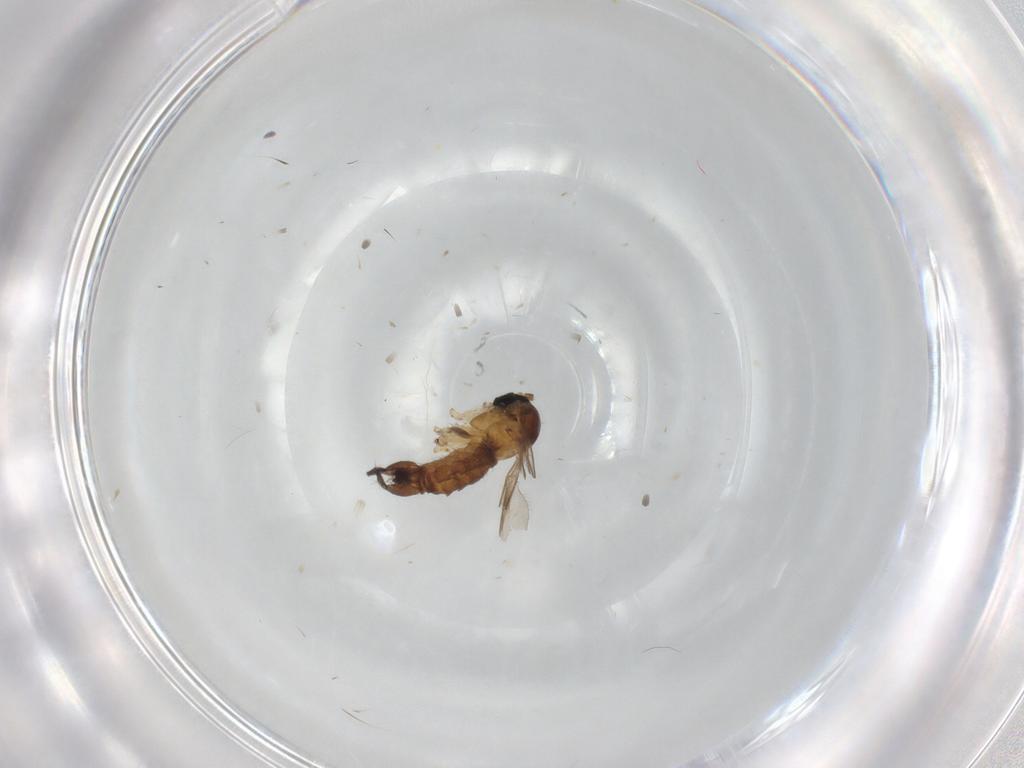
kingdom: Animalia
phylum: Arthropoda
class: Insecta
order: Diptera
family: Sciaridae
